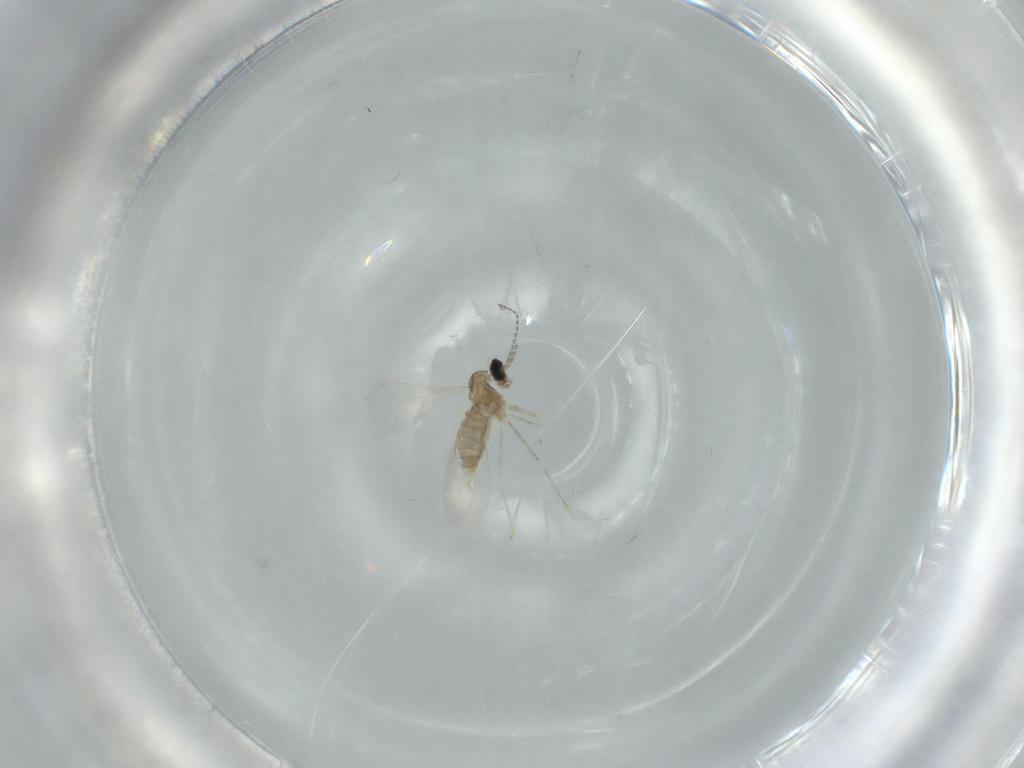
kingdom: Animalia
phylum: Arthropoda
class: Insecta
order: Diptera
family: Cecidomyiidae
